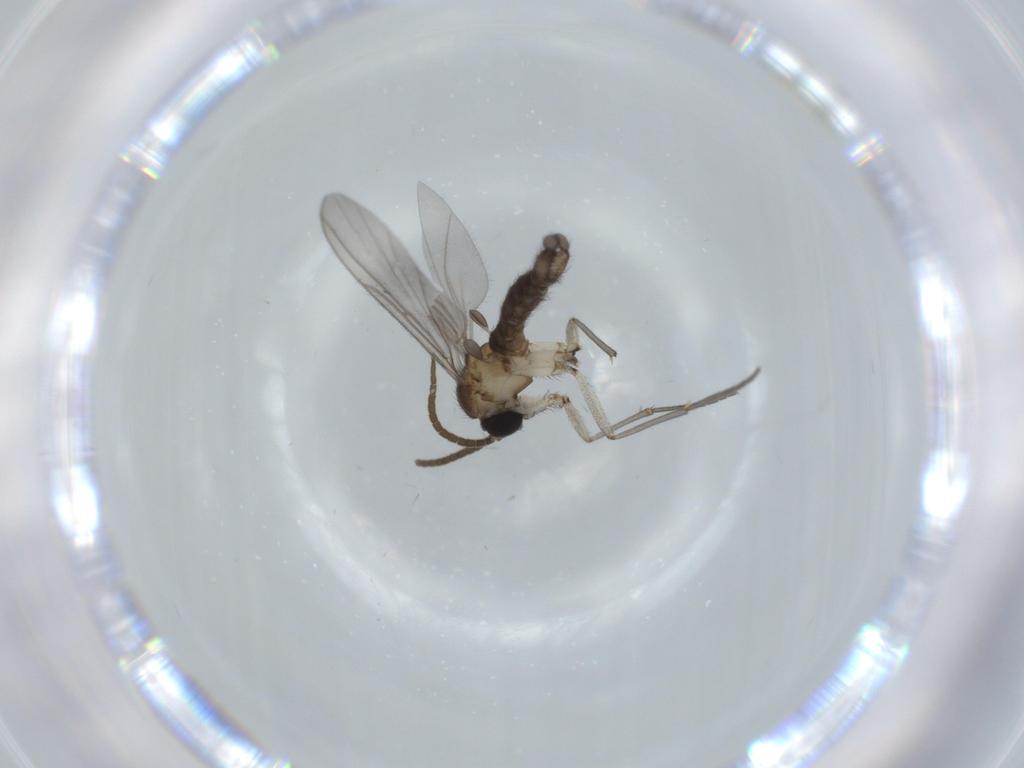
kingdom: Animalia
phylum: Arthropoda
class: Insecta
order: Diptera
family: Sciaridae
